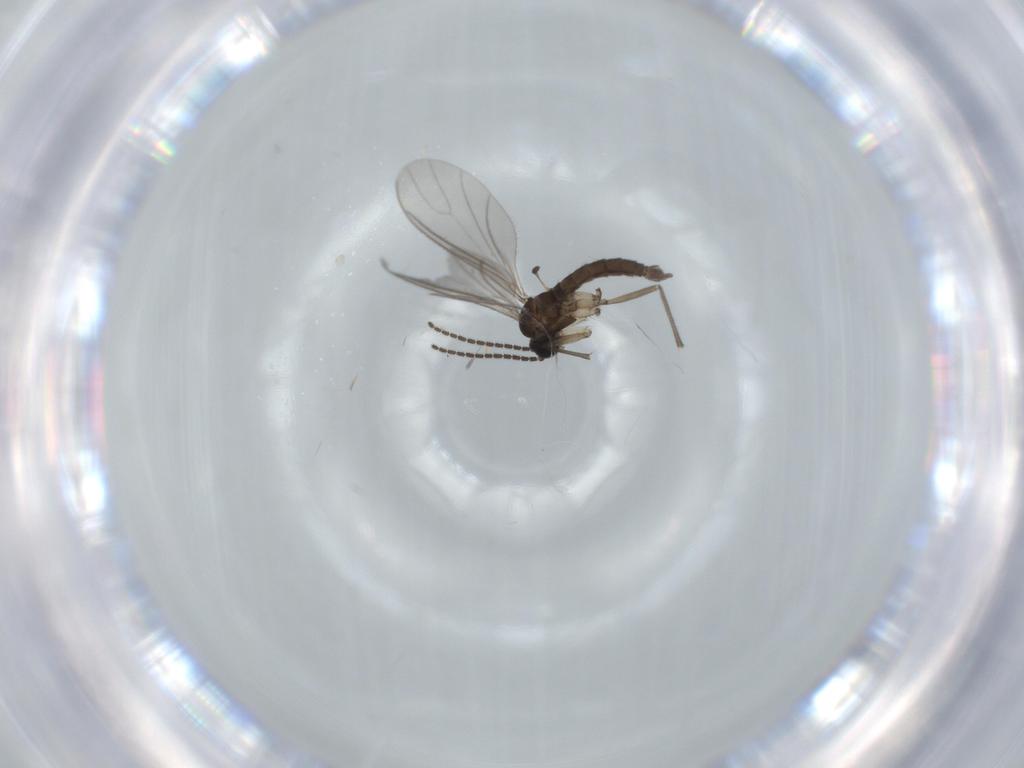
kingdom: Animalia
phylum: Arthropoda
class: Insecta
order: Diptera
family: Sciaridae
